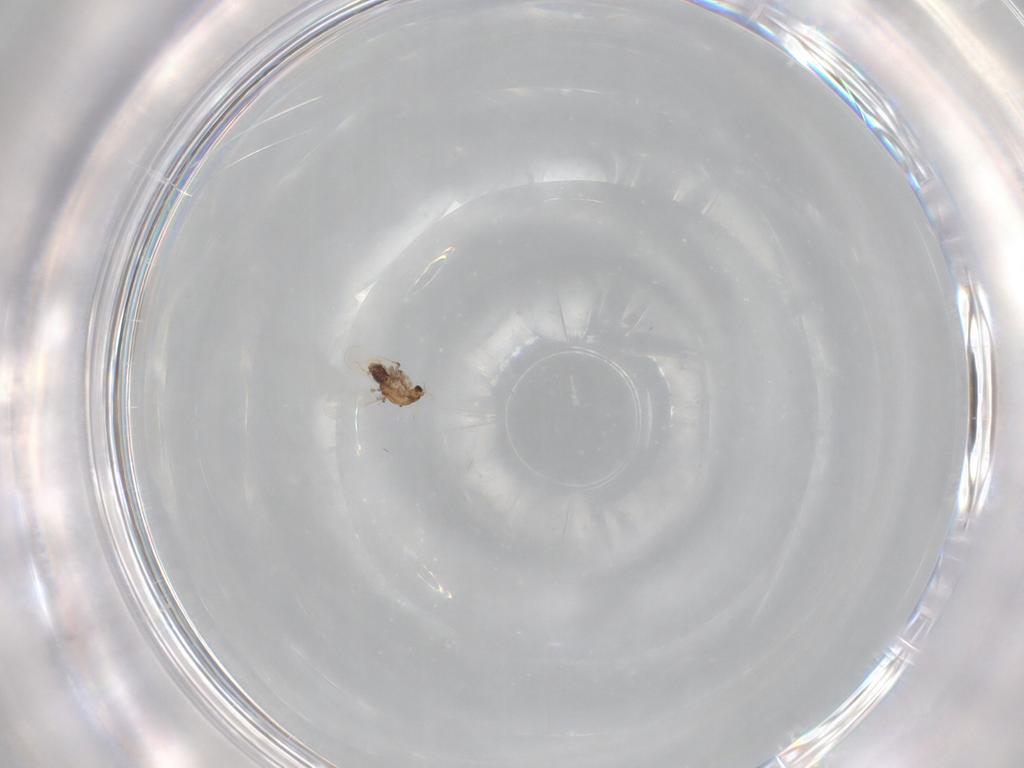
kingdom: Animalia
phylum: Arthropoda
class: Insecta
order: Diptera
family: Chironomidae
